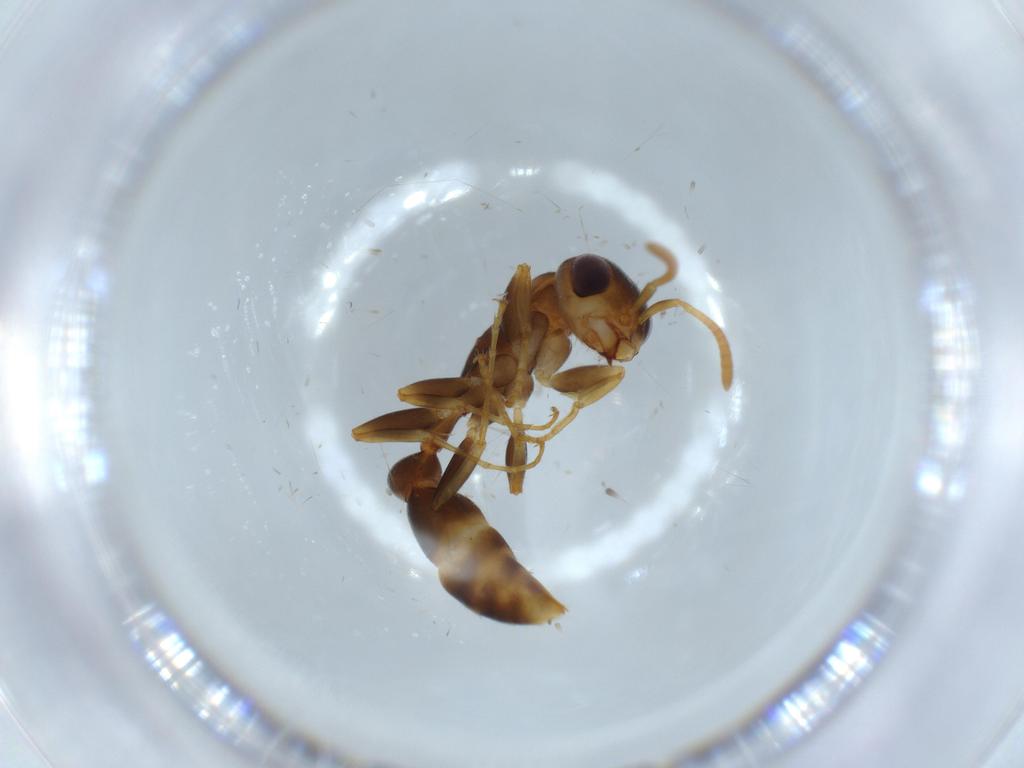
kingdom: Animalia
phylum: Arthropoda
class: Insecta
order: Hymenoptera
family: Formicidae
